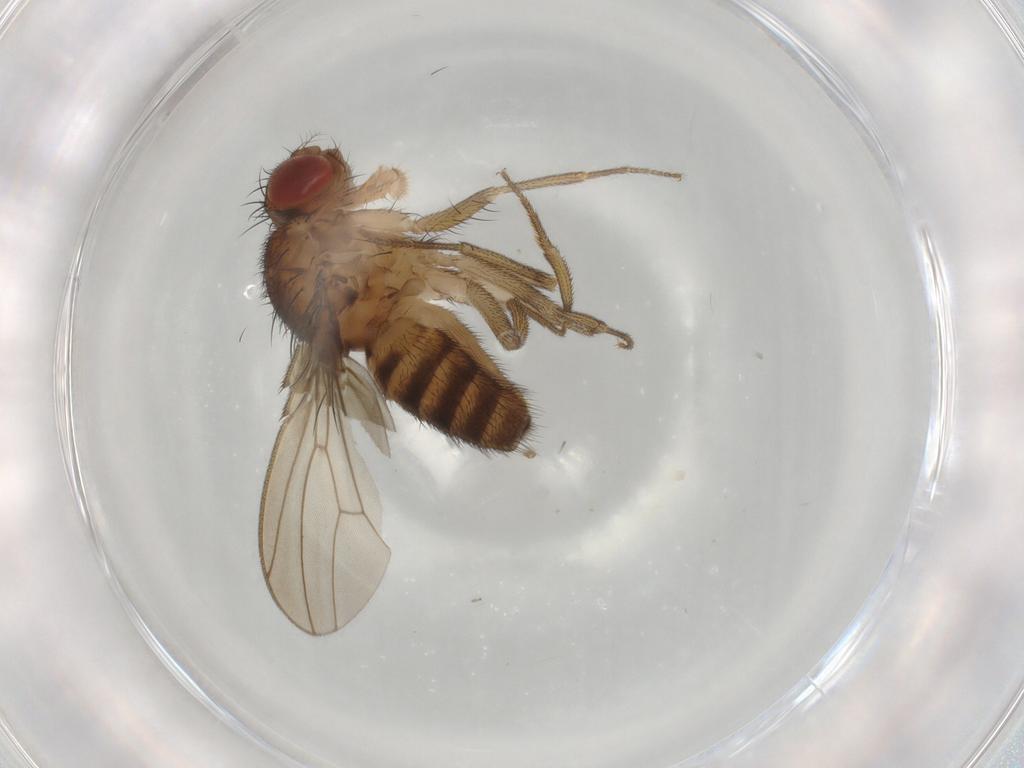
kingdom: Animalia
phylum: Arthropoda
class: Insecta
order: Diptera
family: Drosophilidae
